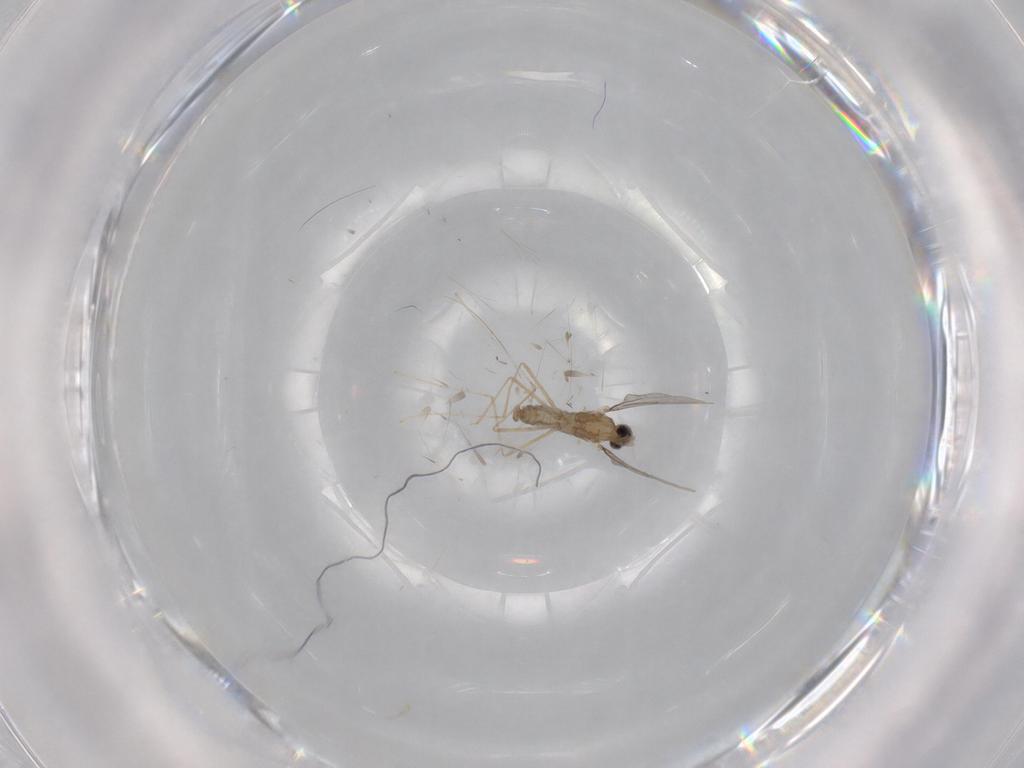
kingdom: Animalia
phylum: Arthropoda
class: Insecta
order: Diptera
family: Cecidomyiidae
